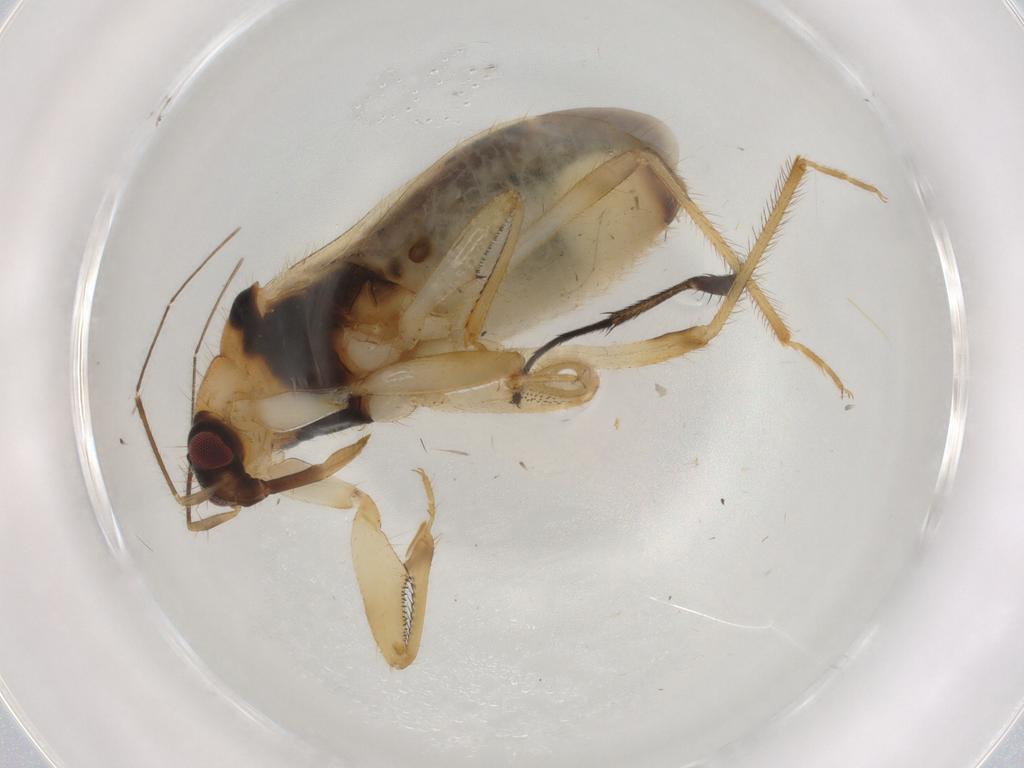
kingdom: Animalia
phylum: Arthropoda
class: Insecta
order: Hemiptera
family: Nabidae
